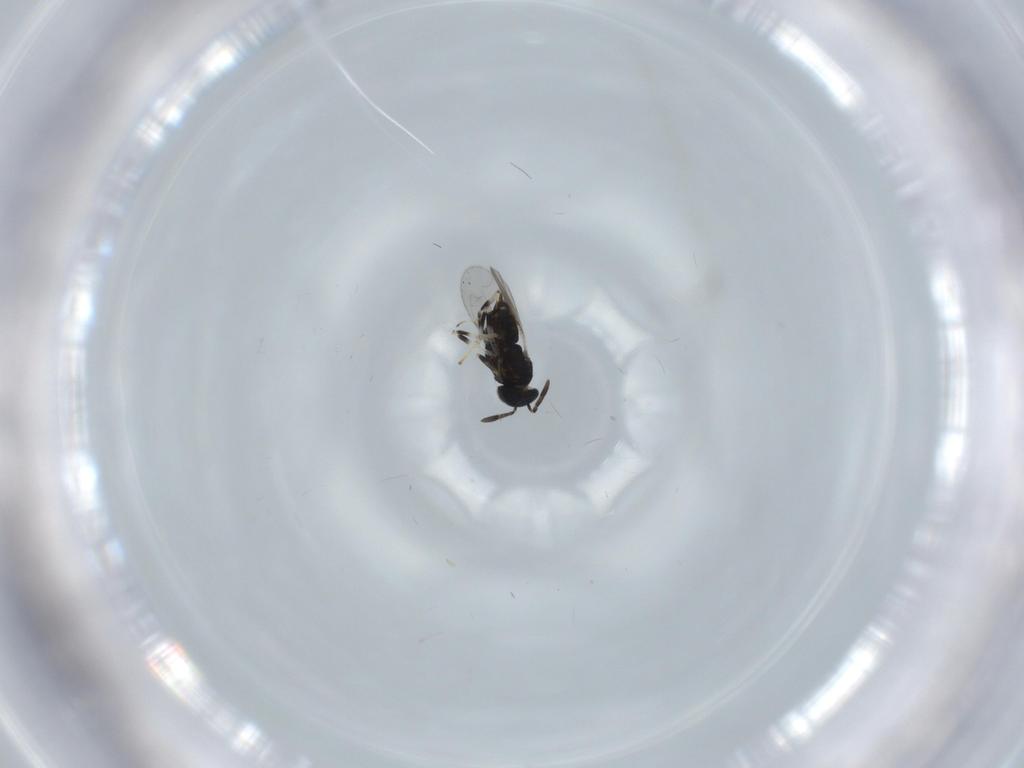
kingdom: Animalia
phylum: Arthropoda
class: Insecta
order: Hymenoptera
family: Encyrtidae
